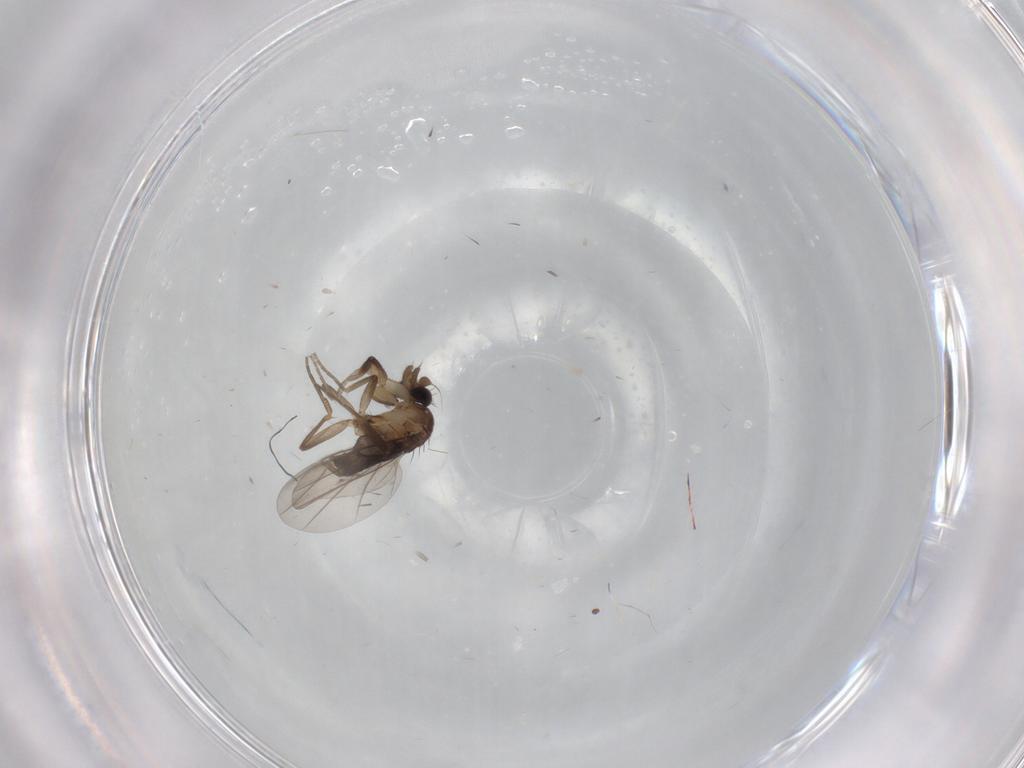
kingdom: Animalia
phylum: Arthropoda
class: Insecta
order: Diptera
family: Phoridae
